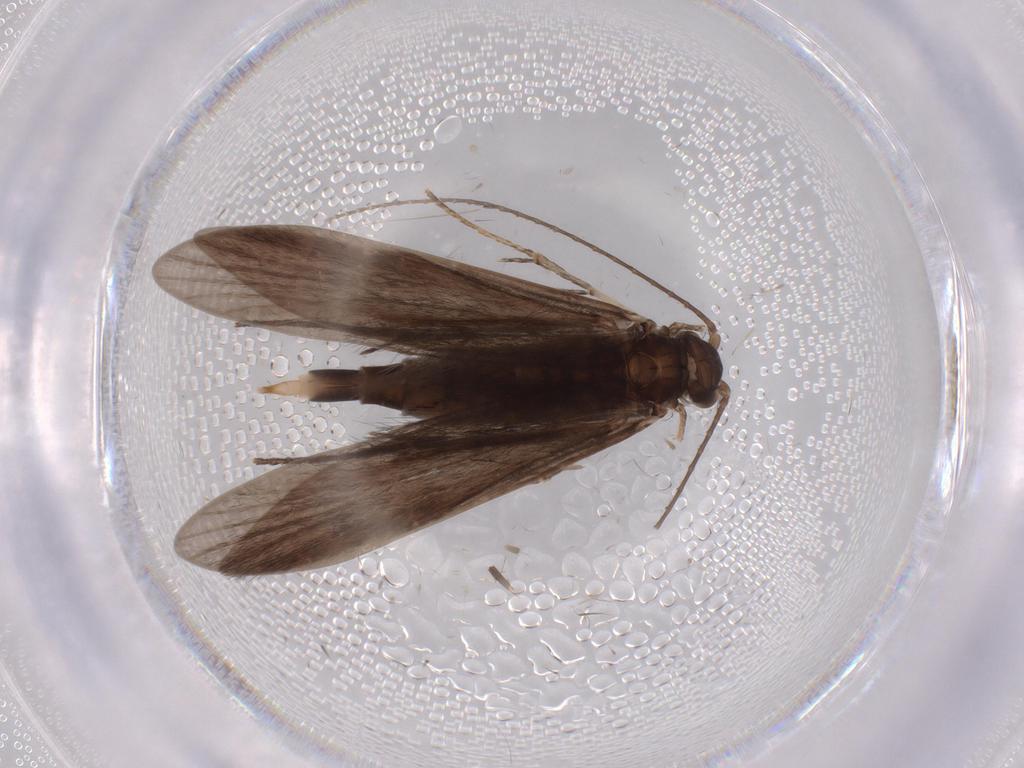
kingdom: Animalia
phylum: Arthropoda
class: Insecta
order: Trichoptera
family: Xiphocentronidae
